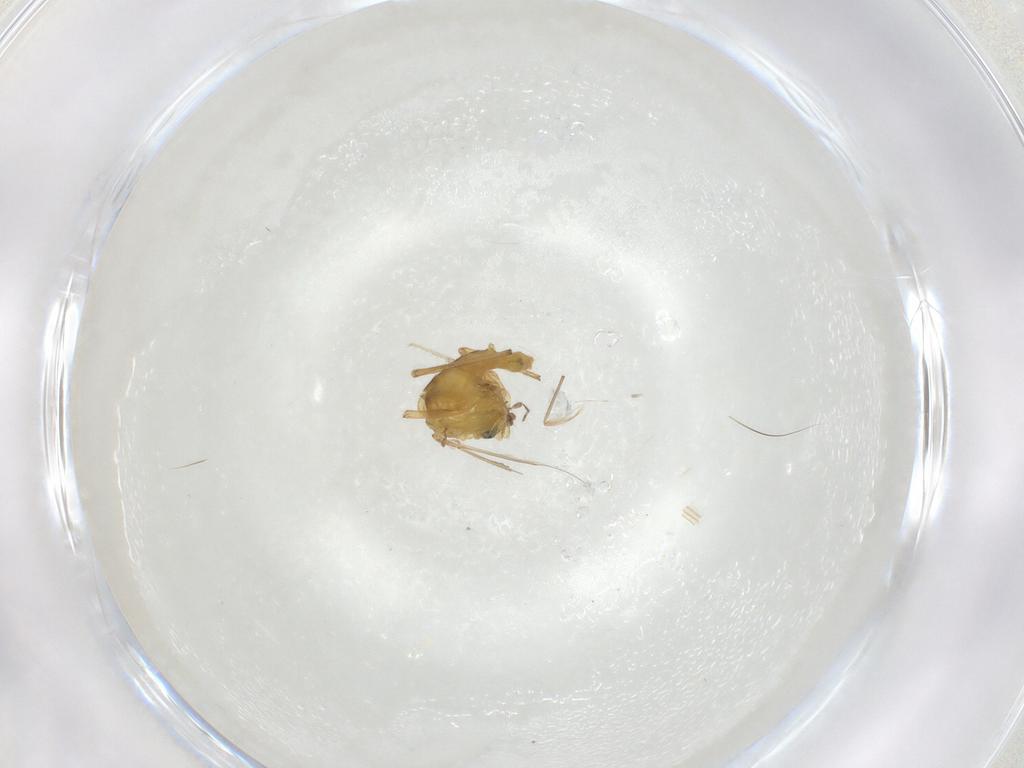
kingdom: Animalia
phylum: Arthropoda
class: Insecta
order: Diptera
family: Chironomidae
